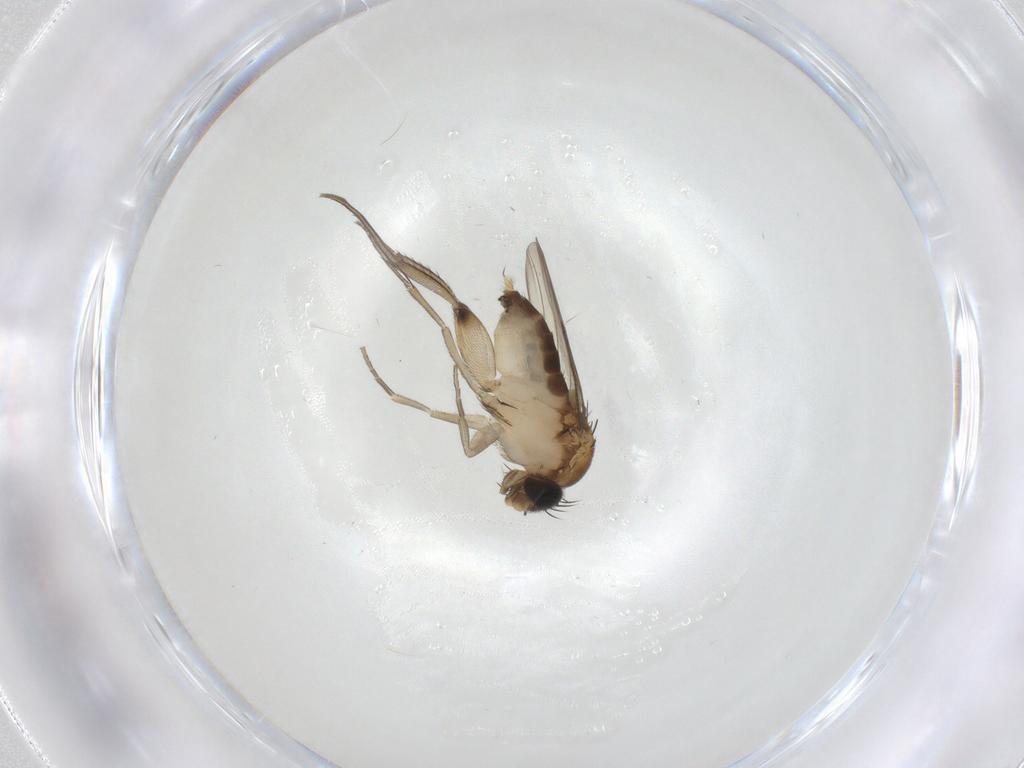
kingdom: Animalia
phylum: Arthropoda
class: Insecta
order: Diptera
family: Phoridae
